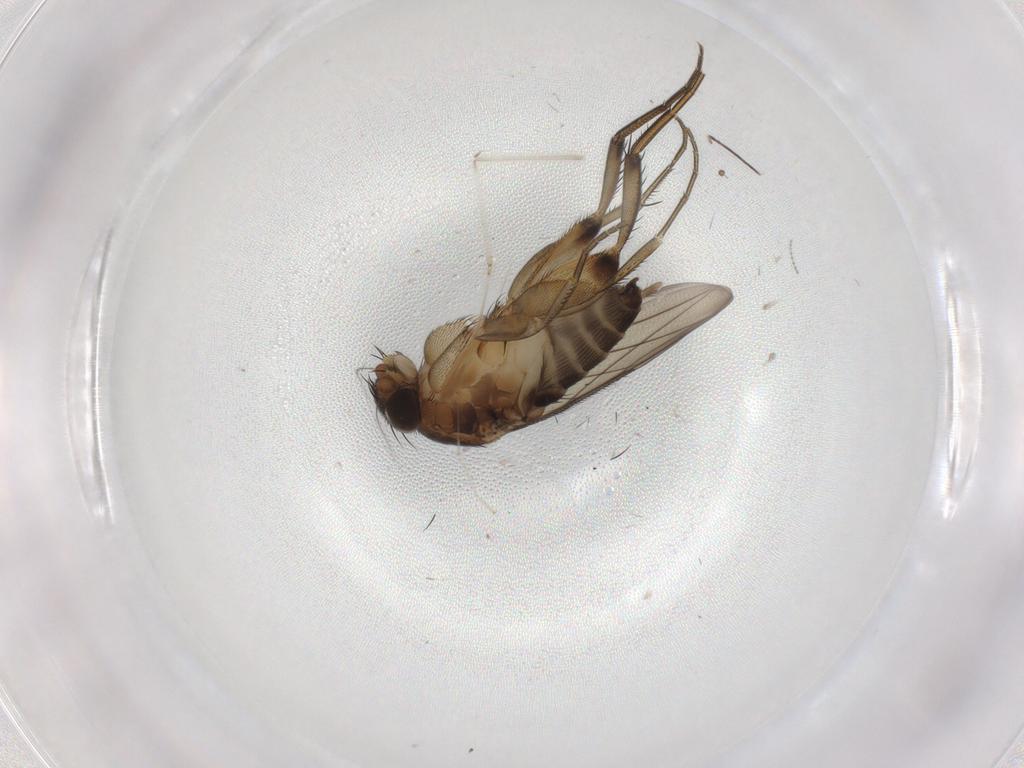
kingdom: Animalia
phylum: Arthropoda
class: Insecta
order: Diptera
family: Cecidomyiidae
